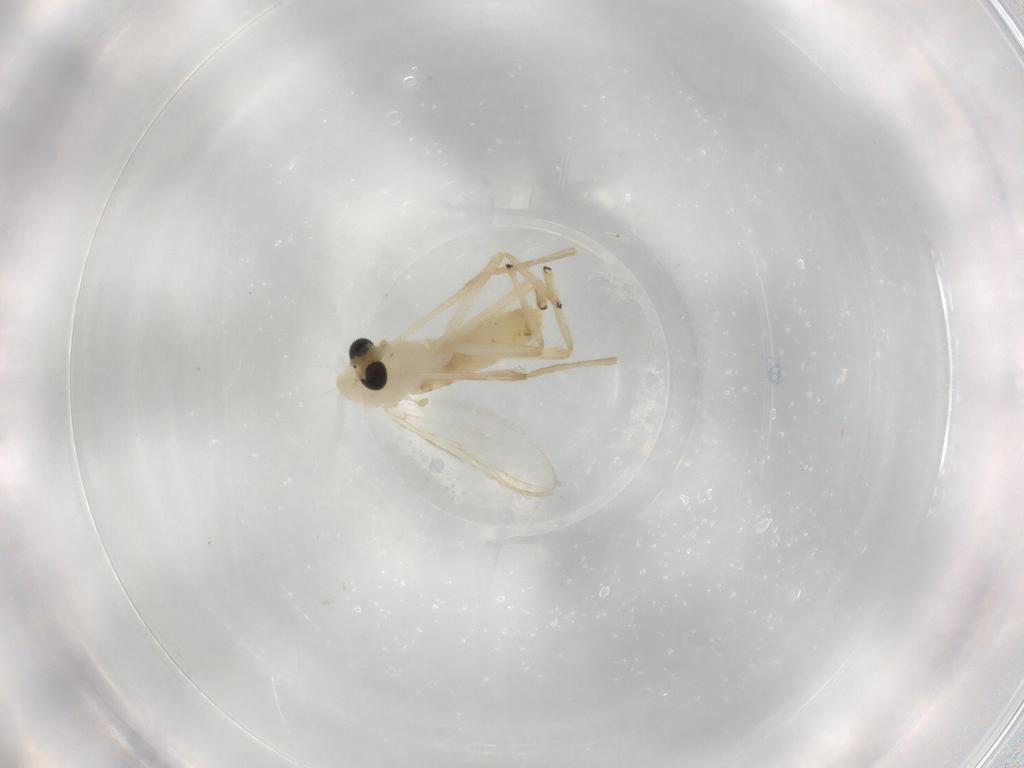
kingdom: Animalia
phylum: Arthropoda
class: Insecta
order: Diptera
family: Chironomidae
